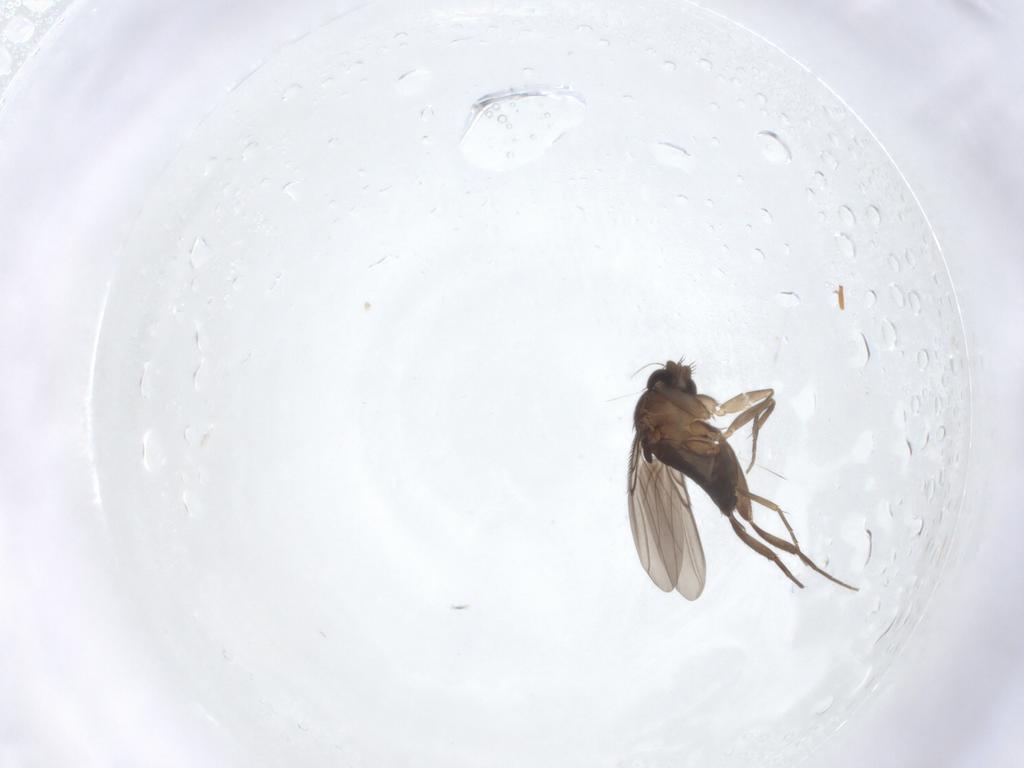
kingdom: Animalia
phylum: Arthropoda
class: Insecta
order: Diptera
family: Phoridae
